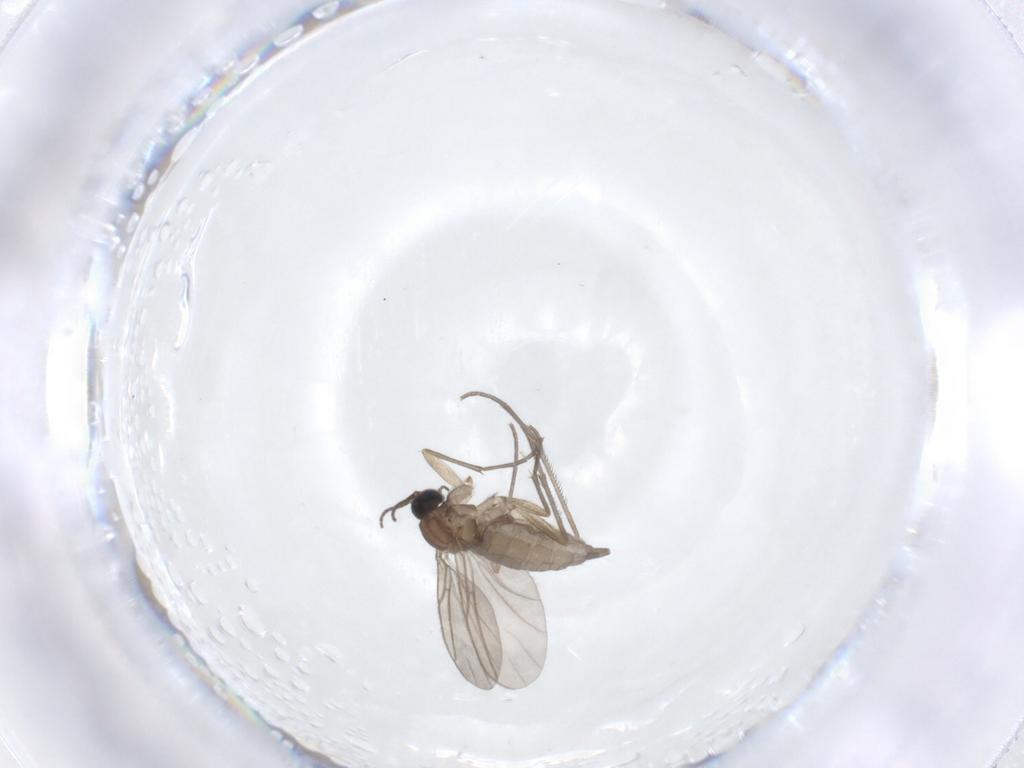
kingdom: Animalia
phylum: Arthropoda
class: Insecta
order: Diptera
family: Sciaridae
